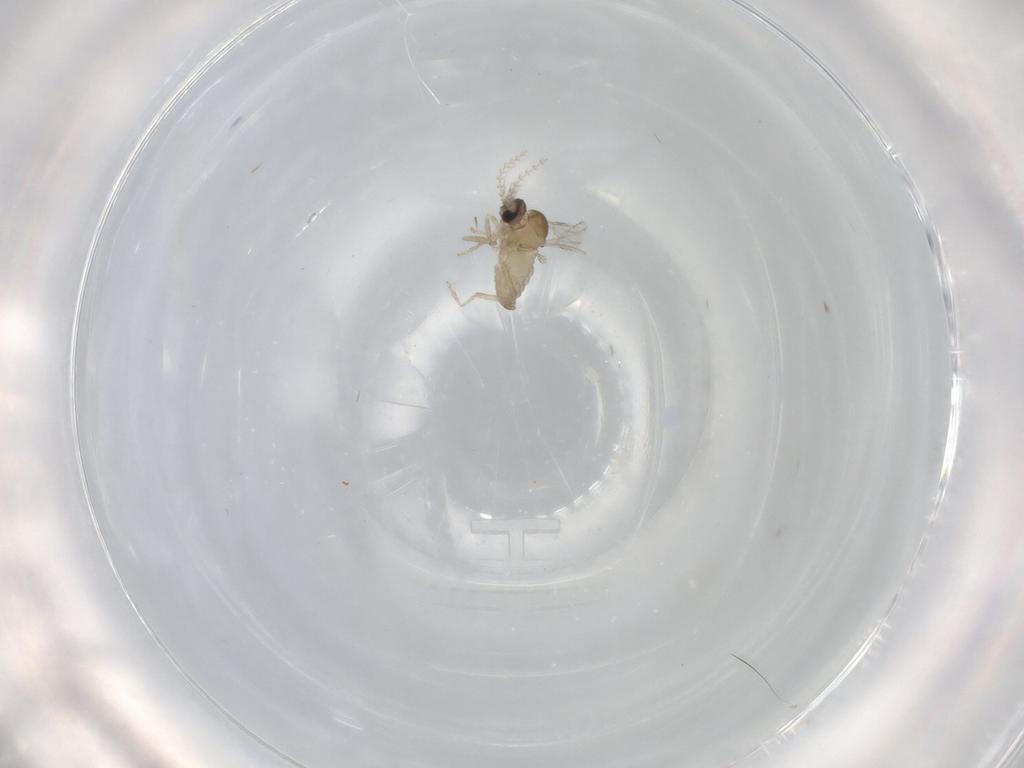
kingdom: Animalia
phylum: Arthropoda
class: Insecta
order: Diptera
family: Cecidomyiidae
